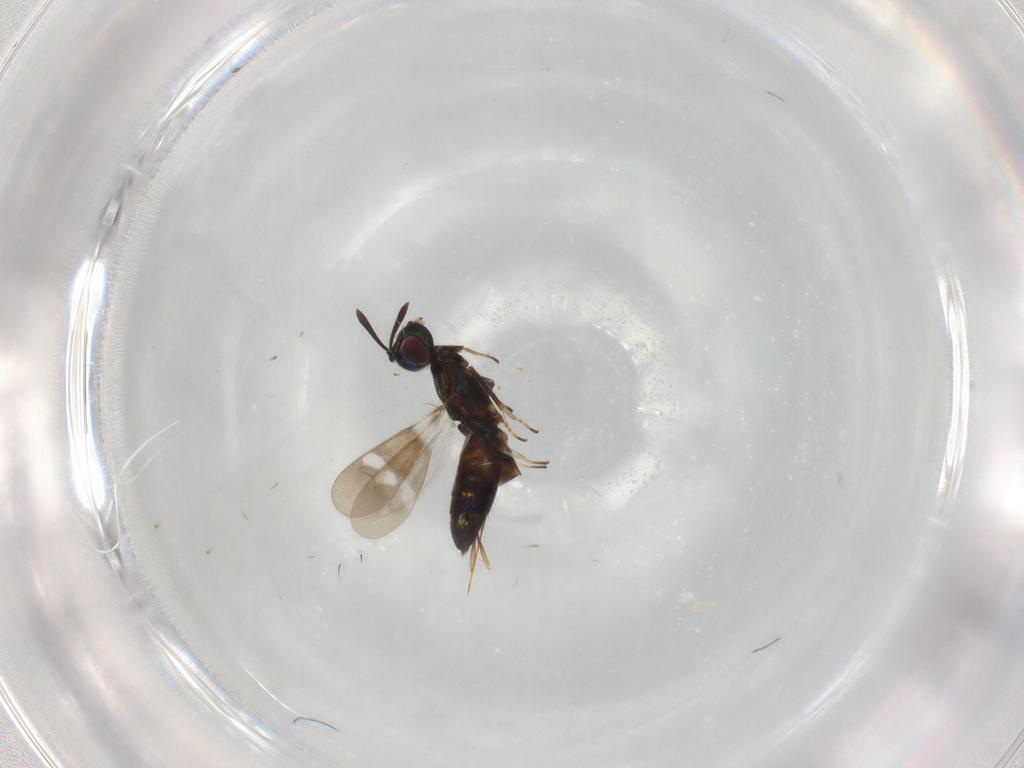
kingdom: Animalia
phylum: Arthropoda
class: Insecta
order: Hymenoptera
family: Eupelmidae
